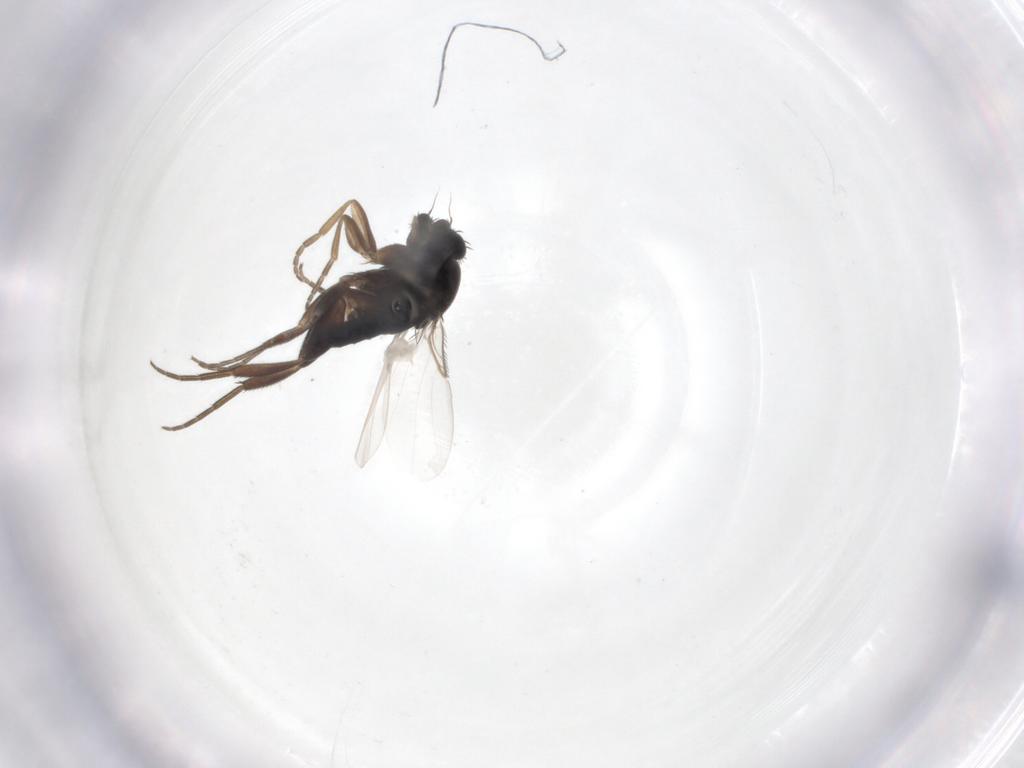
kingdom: Animalia
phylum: Arthropoda
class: Insecta
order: Diptera
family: Phoridae
